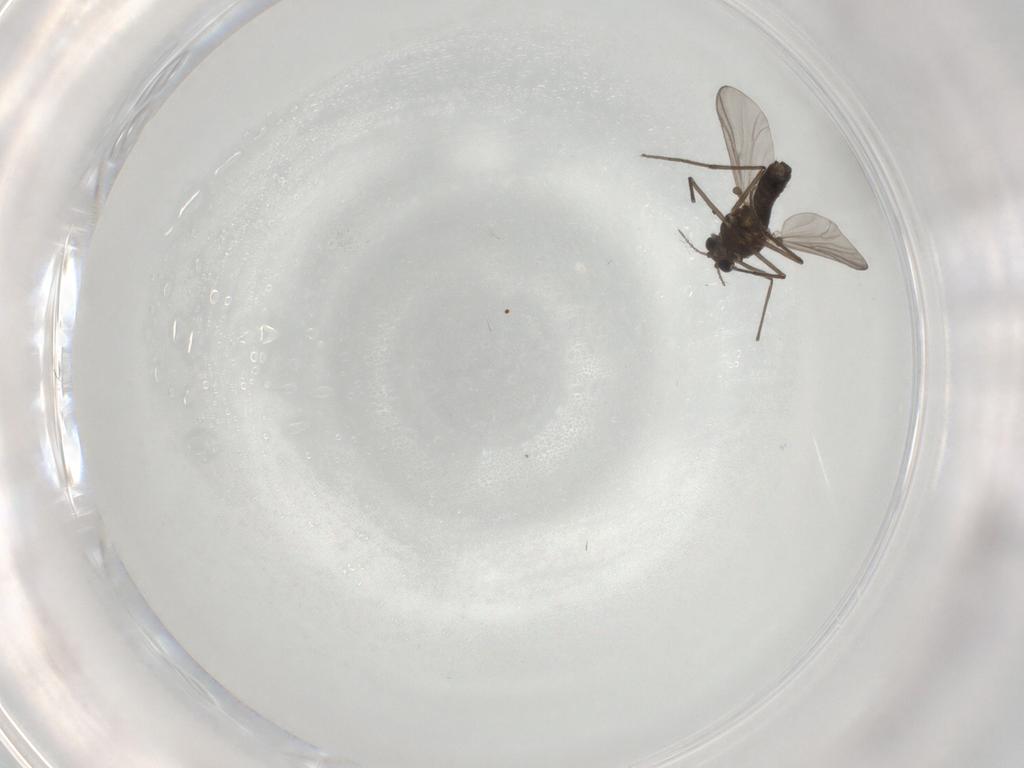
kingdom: Animalia
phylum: Arthropoda
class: Insecta
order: Diptera
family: Chironomidae
